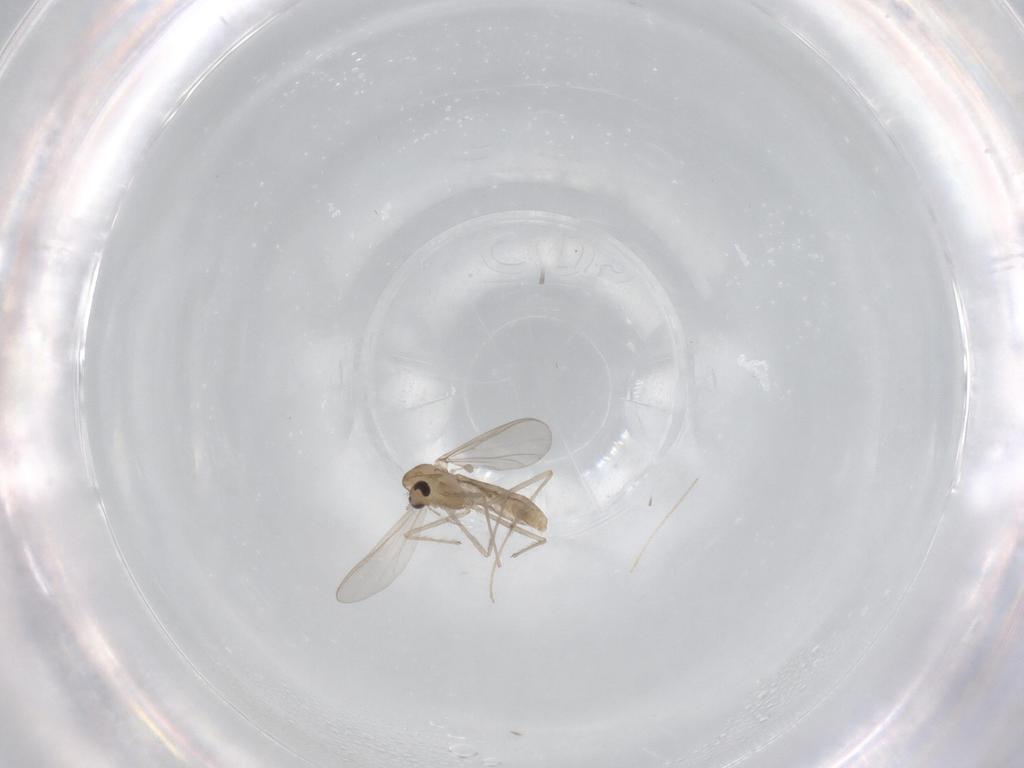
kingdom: Animalia
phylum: Arthropoda
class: Insecta
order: Diptera
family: Chironomidae
